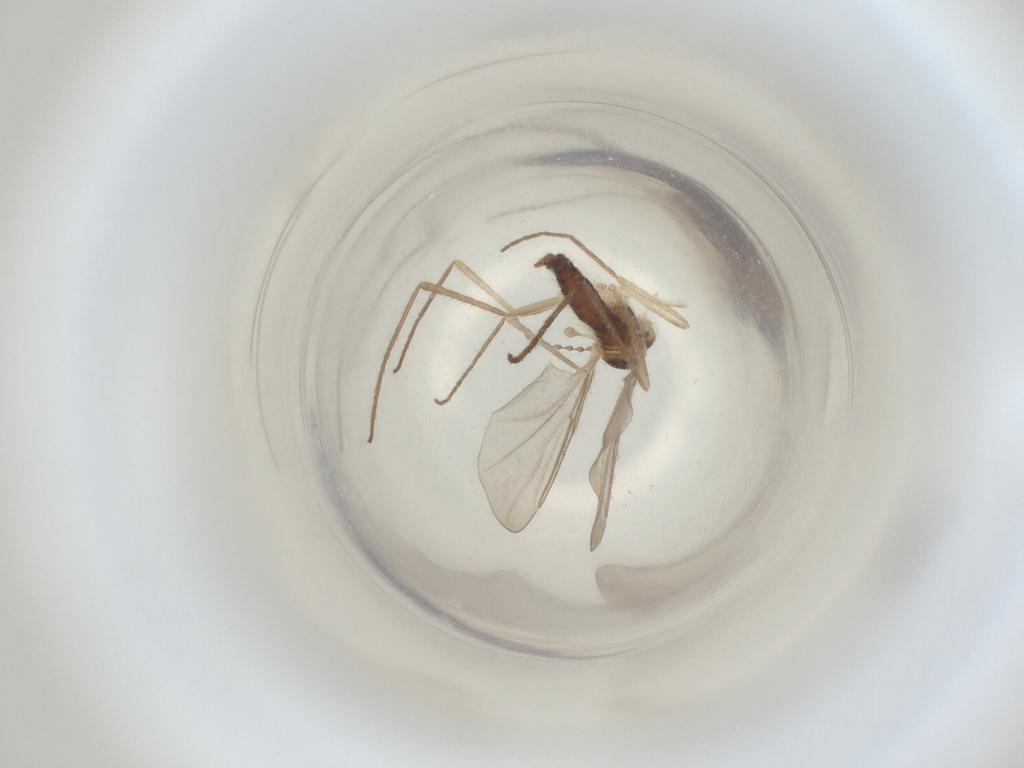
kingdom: Animalia
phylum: Arthropoda
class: Insecta
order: Diptera
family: Cecidomyiidae
